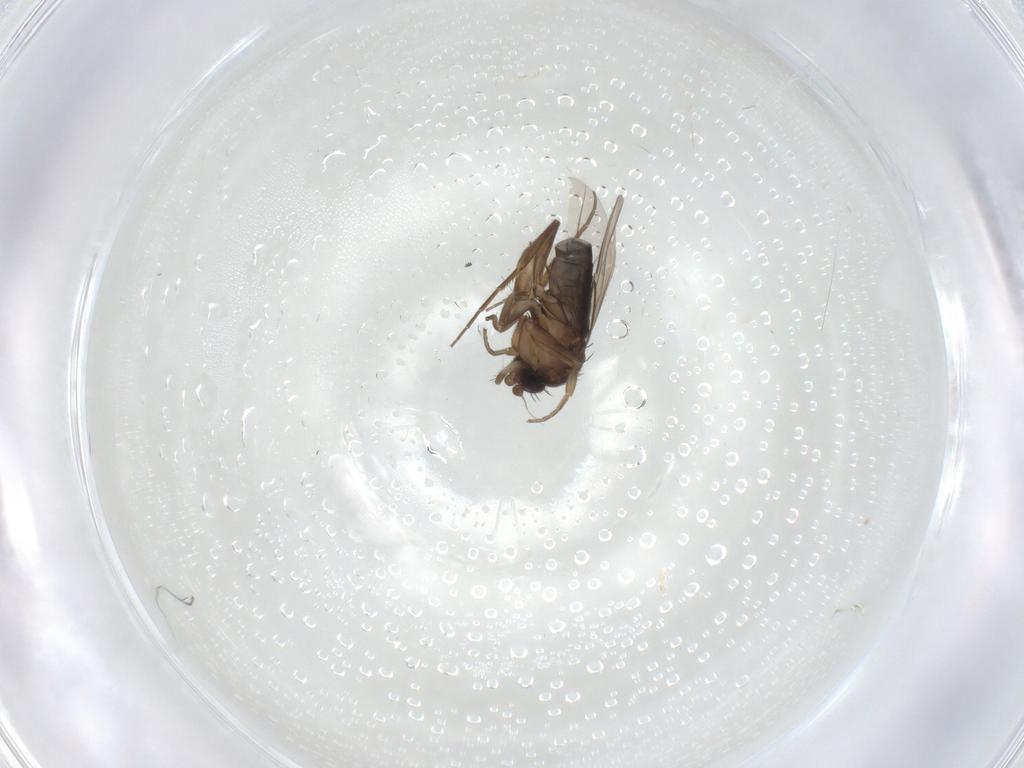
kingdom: Animalia
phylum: Arthropoda
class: Insecta
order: Diptera
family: Phoridae
